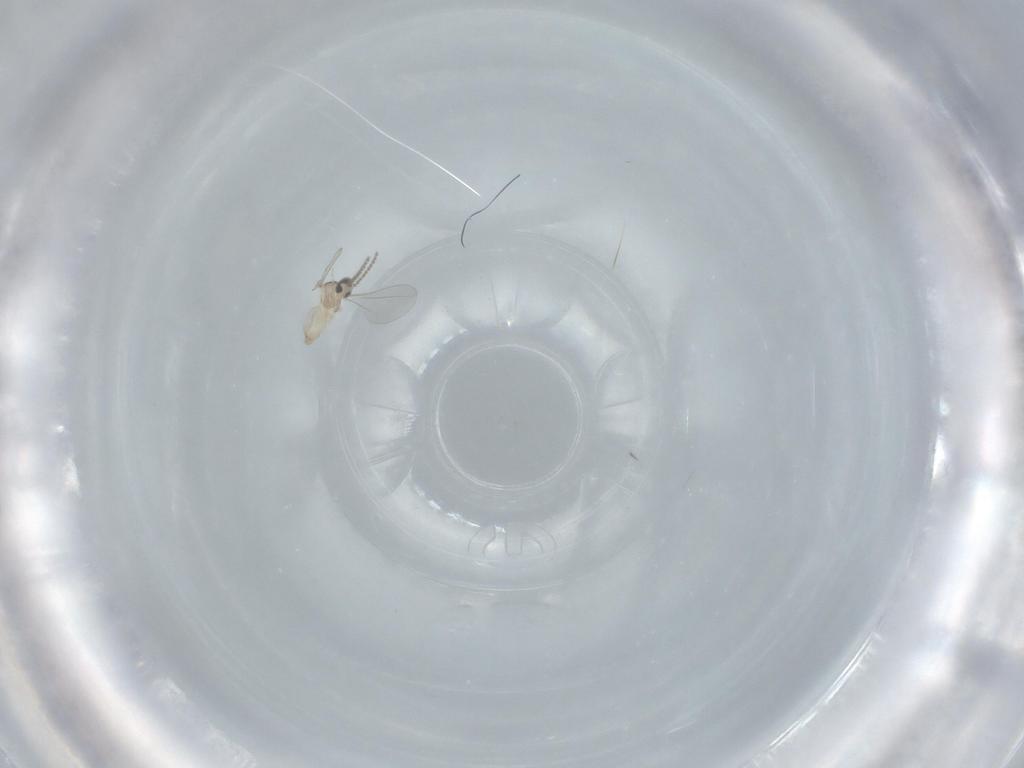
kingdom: Animalia
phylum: Arthropoda
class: Insecta
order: Diptera
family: Cecidomyiidae
